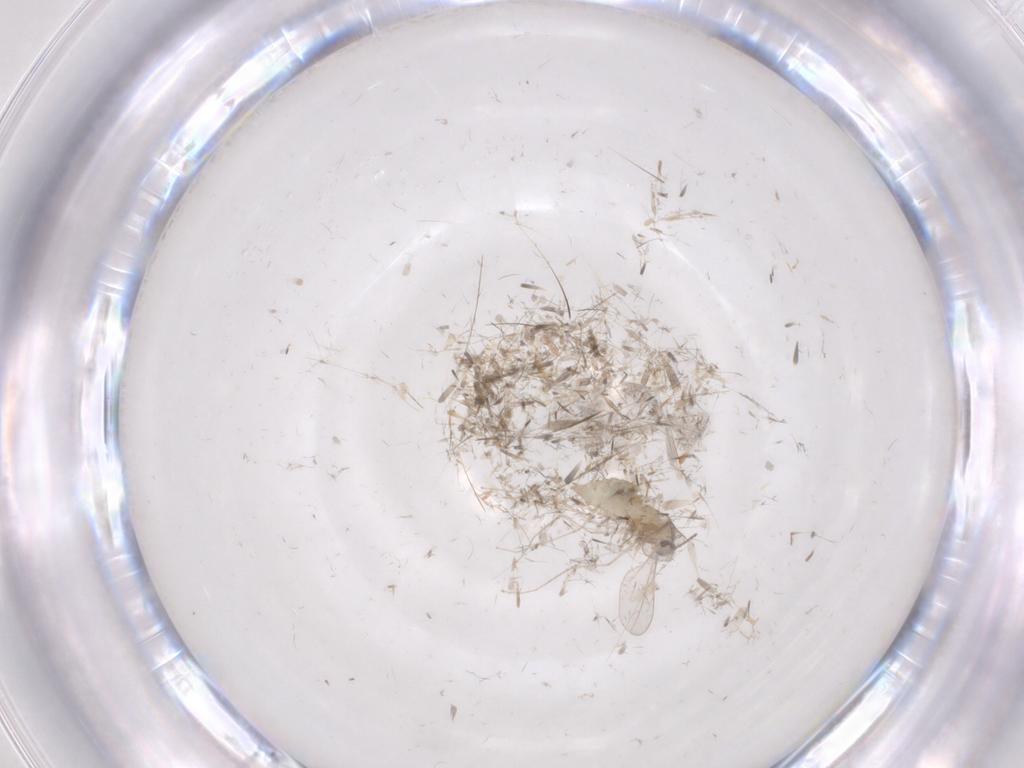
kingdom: Animalia
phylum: Arthropoda
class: Insecta
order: Diptera
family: Cecidomyiidae
